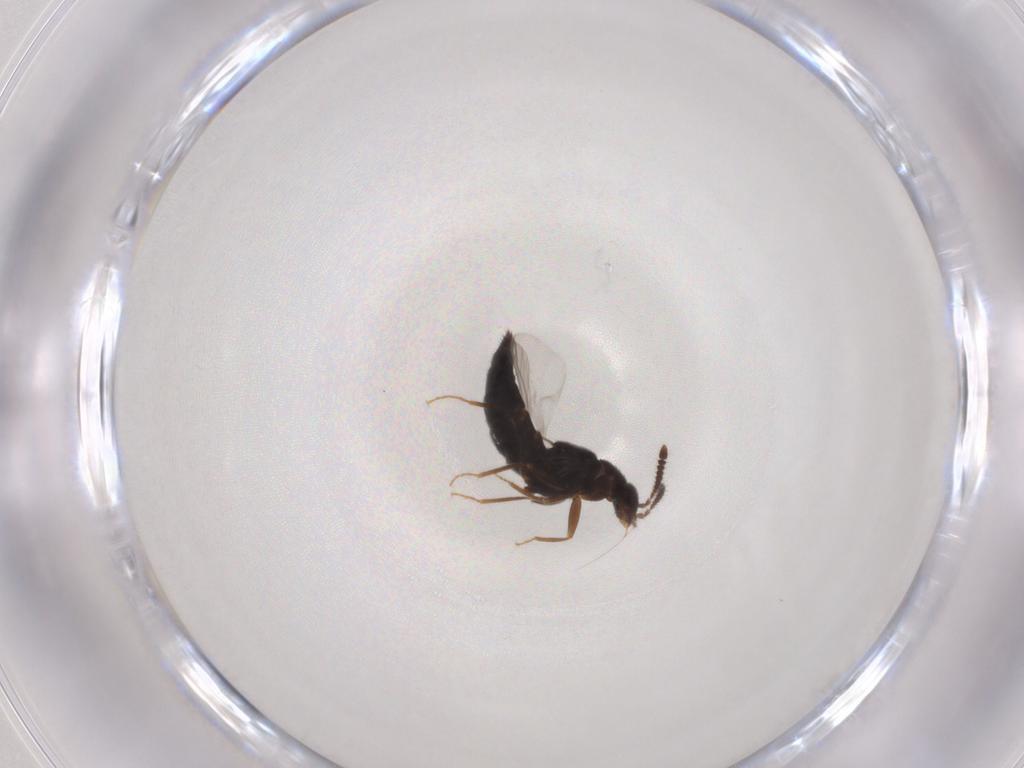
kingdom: Animalia
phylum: Arthropoda
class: Insecta
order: Coleoptera
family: Staphylinidae
